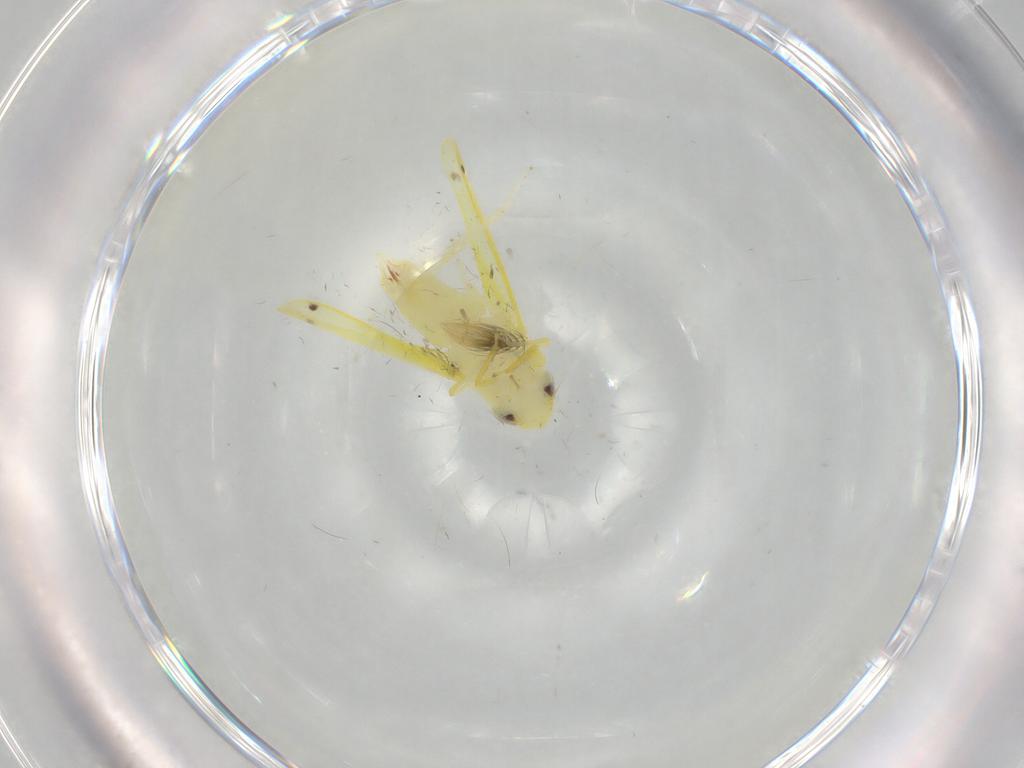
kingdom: Animalia
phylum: Arthropoda
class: Insecta
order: Hemiptera
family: Cicadellidae
